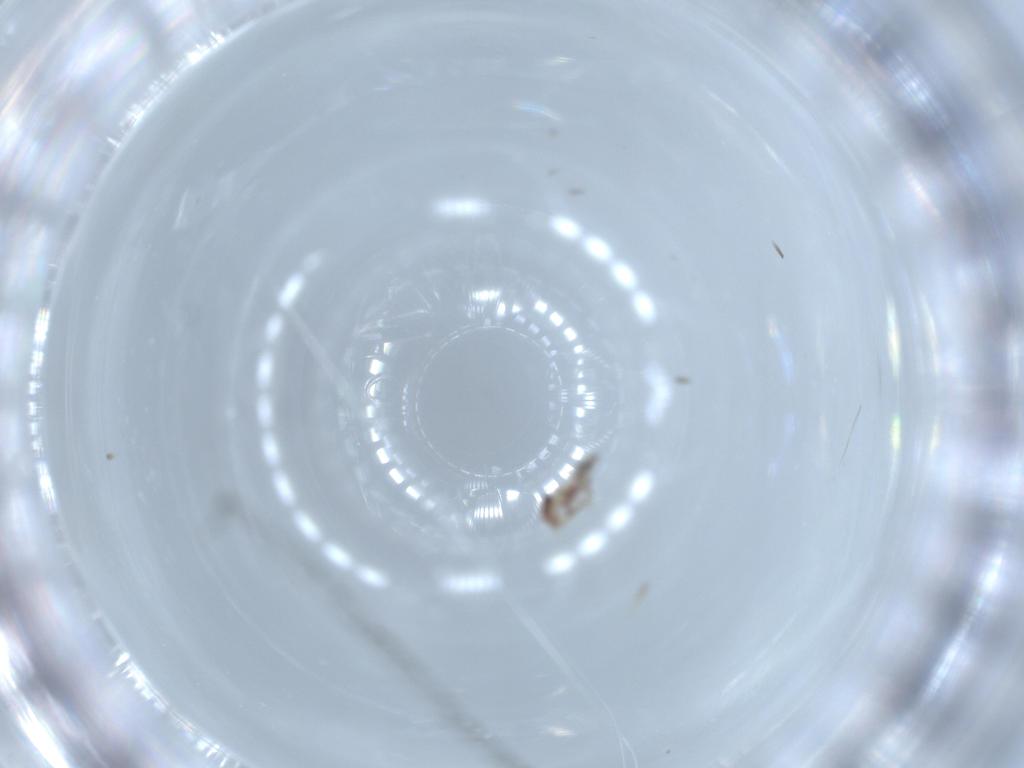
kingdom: Animalia
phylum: Arthropoda
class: Insecta
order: Psocodea
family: Lepidopsocidae
